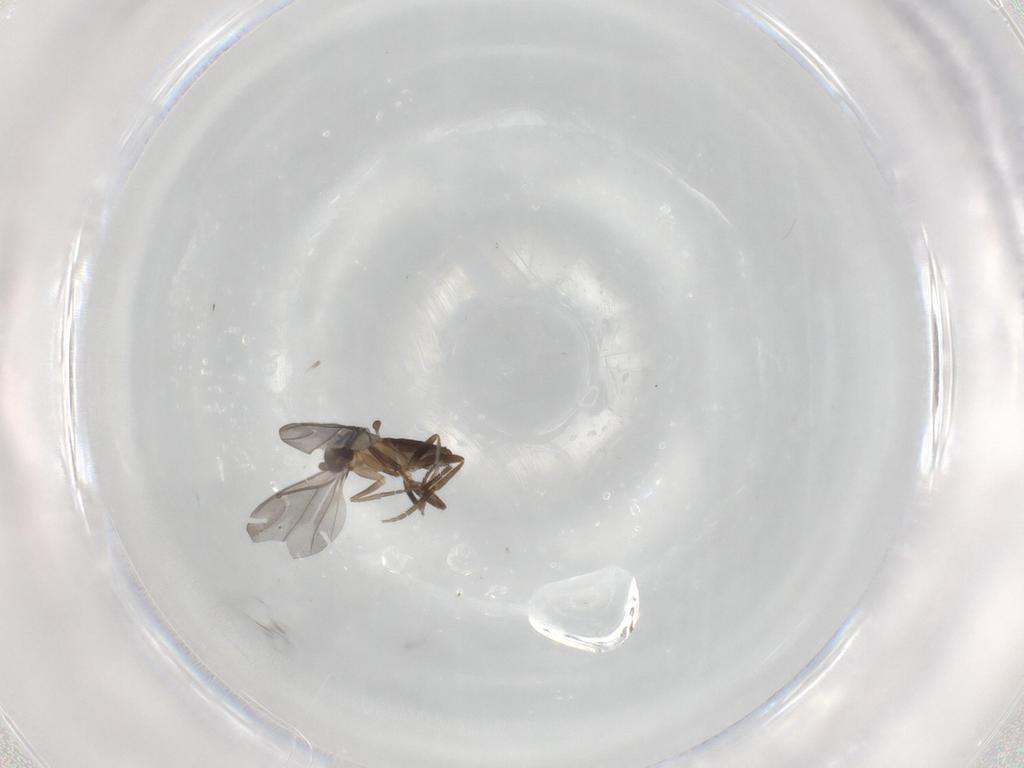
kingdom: Animalia
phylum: Arthropoda
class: Insecta
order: Diptera
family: Phoridae
